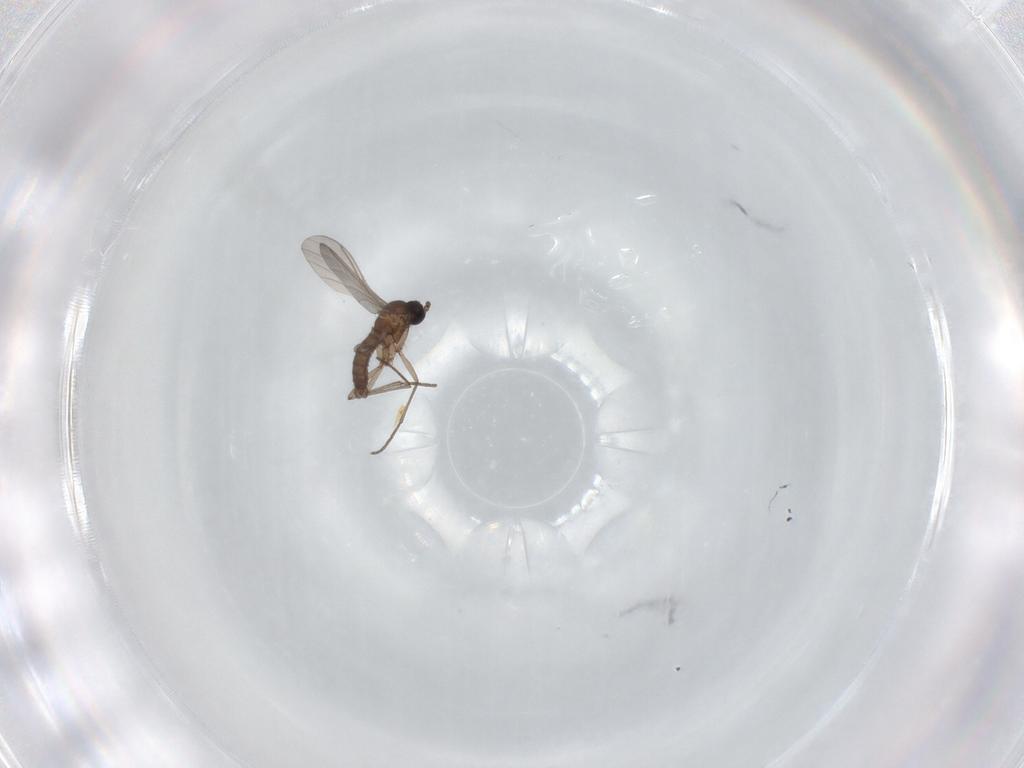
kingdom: Animalia
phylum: Arthropoda
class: Insecta
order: Diptera
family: Sciaridae
